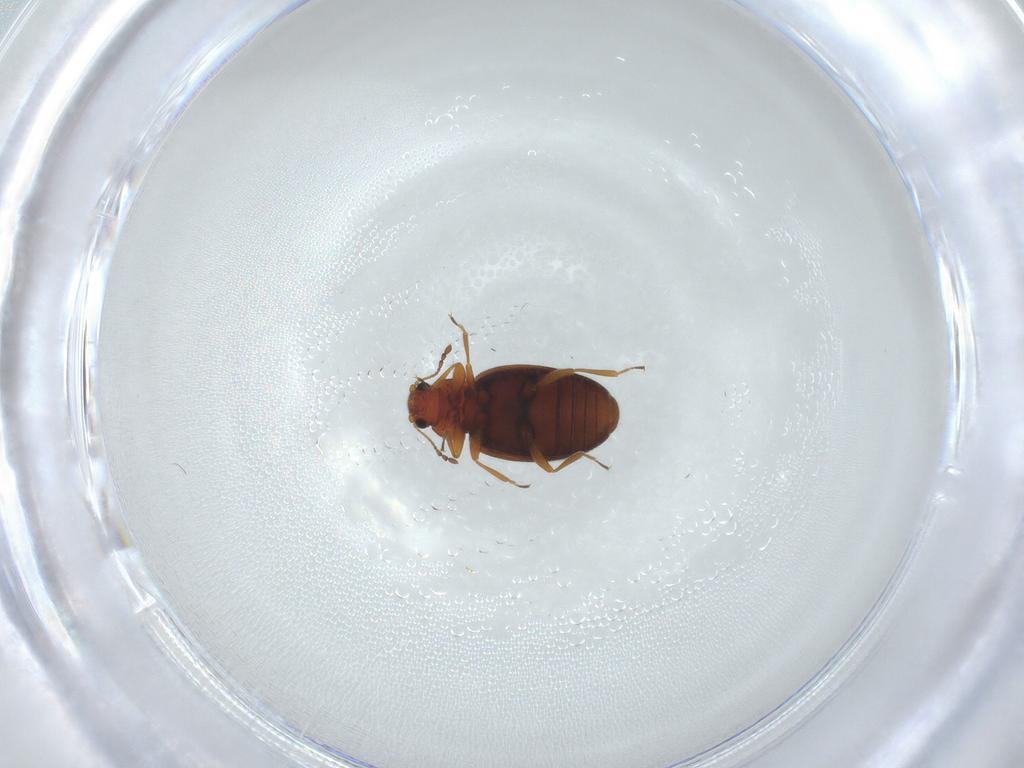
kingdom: Animalia
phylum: Arthropoda
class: Insecta
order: Coleoptera
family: Latridiidae
